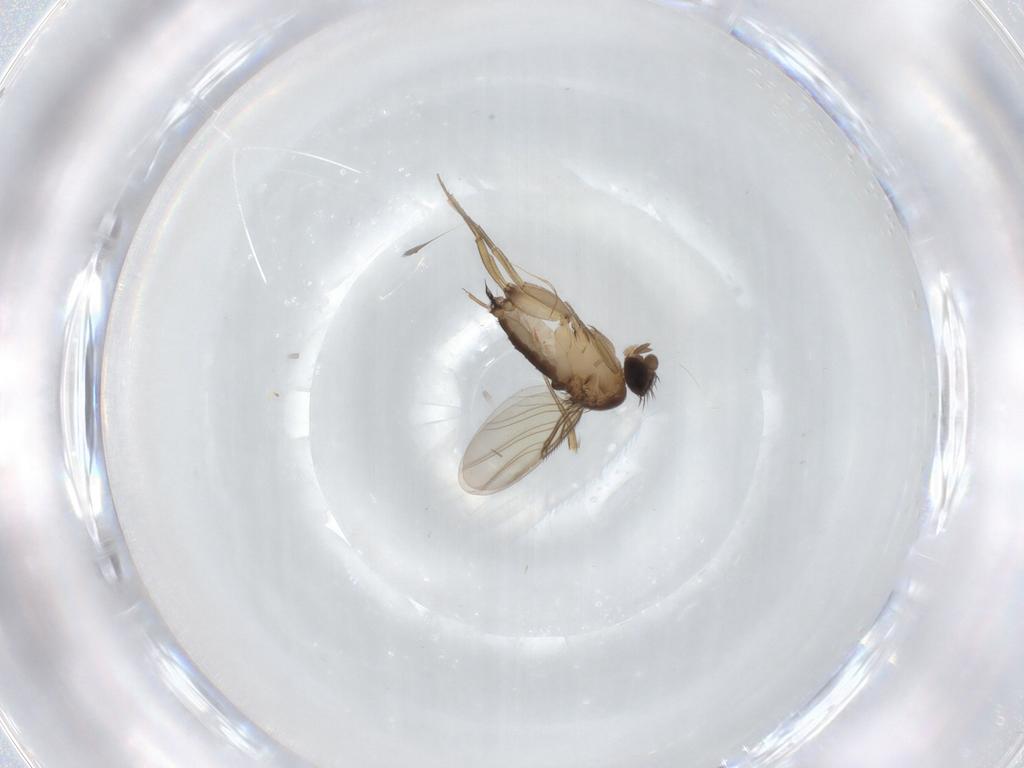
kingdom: Animalia
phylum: Arthropoda
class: Insecta
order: Diptera
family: Phoridae
